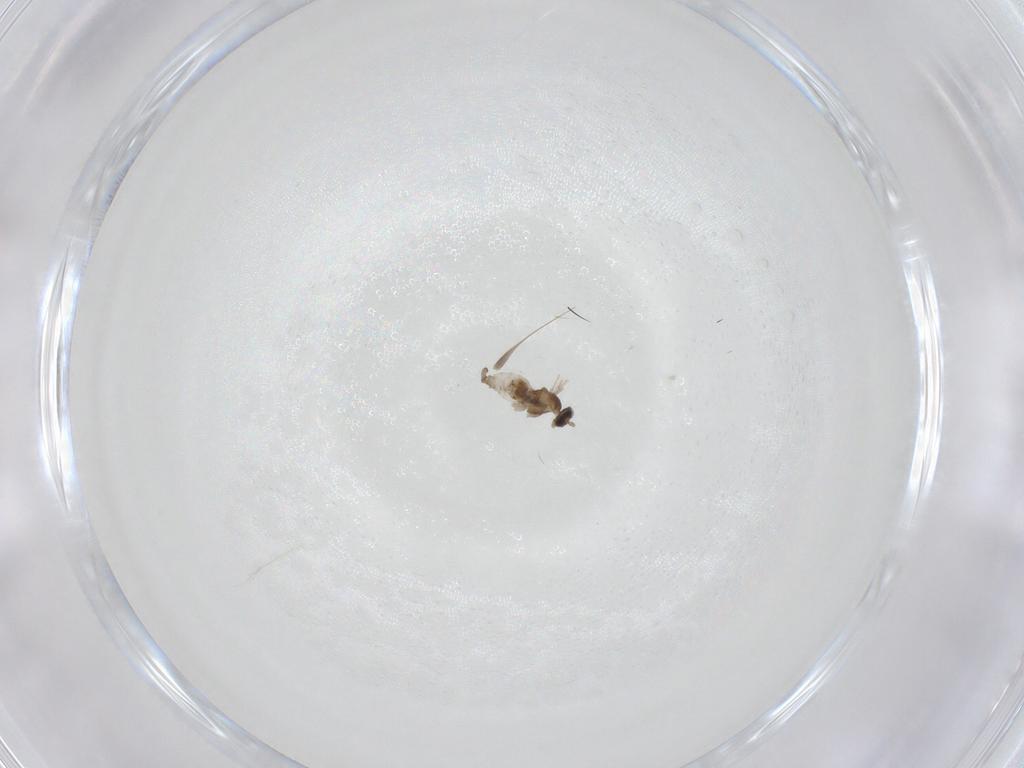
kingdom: Animalia
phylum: Arthropoda
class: Insecta
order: Diptera
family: Cecidomyiidae
